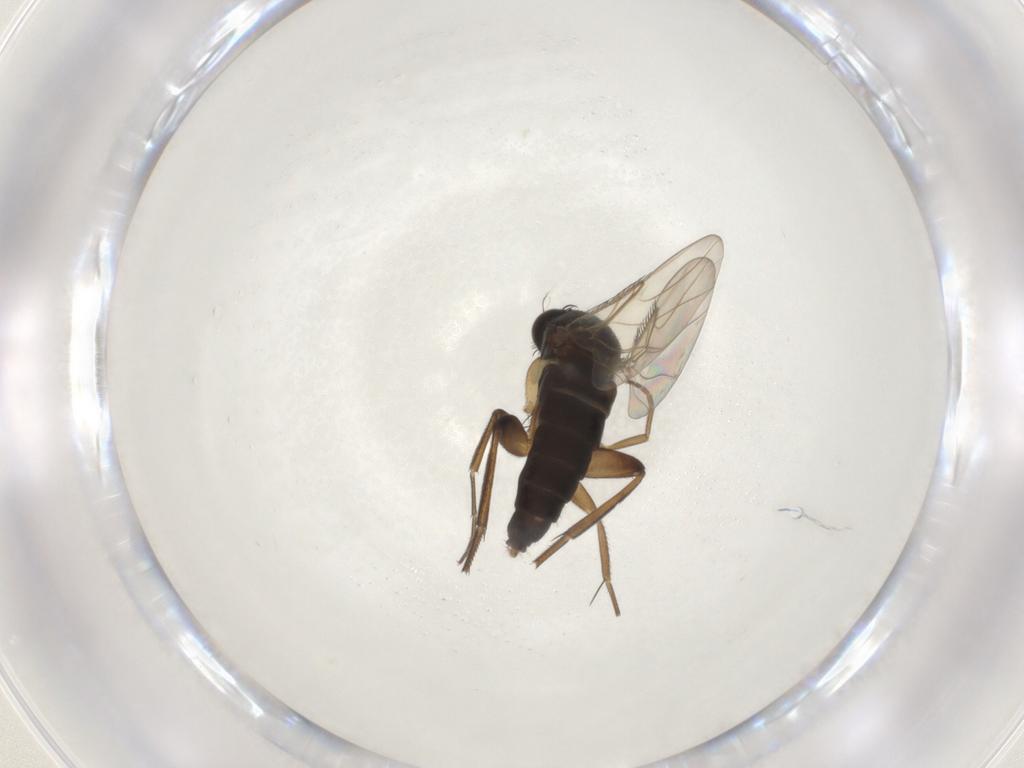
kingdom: Animalia
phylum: Arthropoda
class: Insecta
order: Diptera
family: Phoridae
